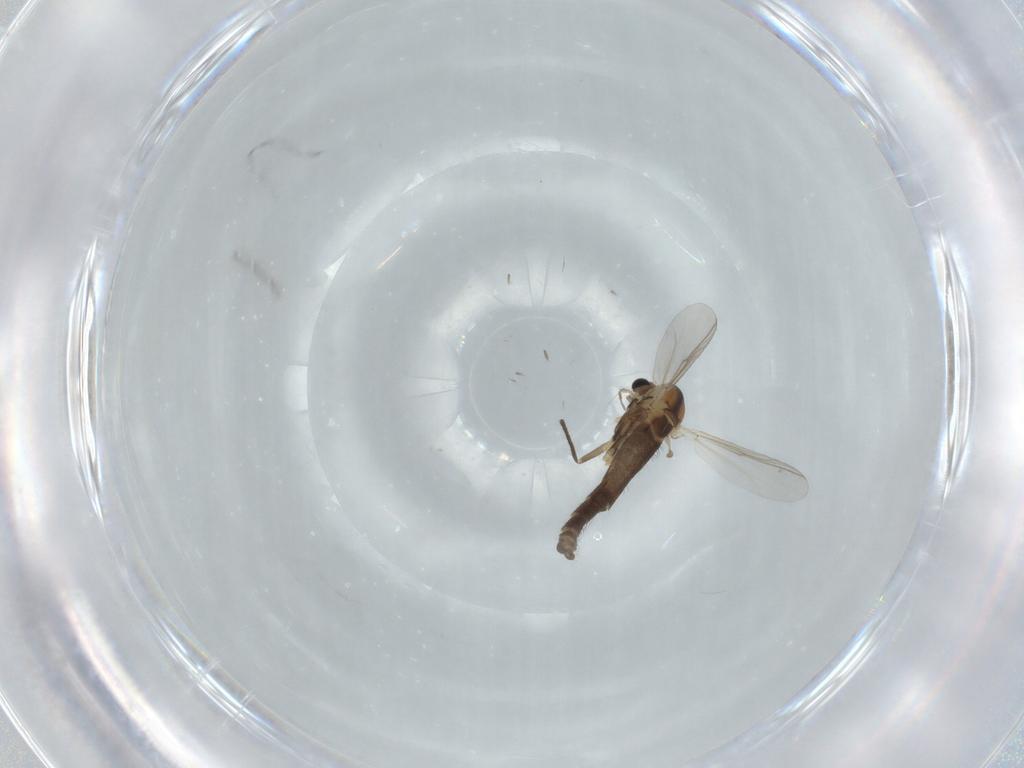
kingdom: Animalia
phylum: Arthropoda
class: Insecta
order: Diptera
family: Chironomidae
